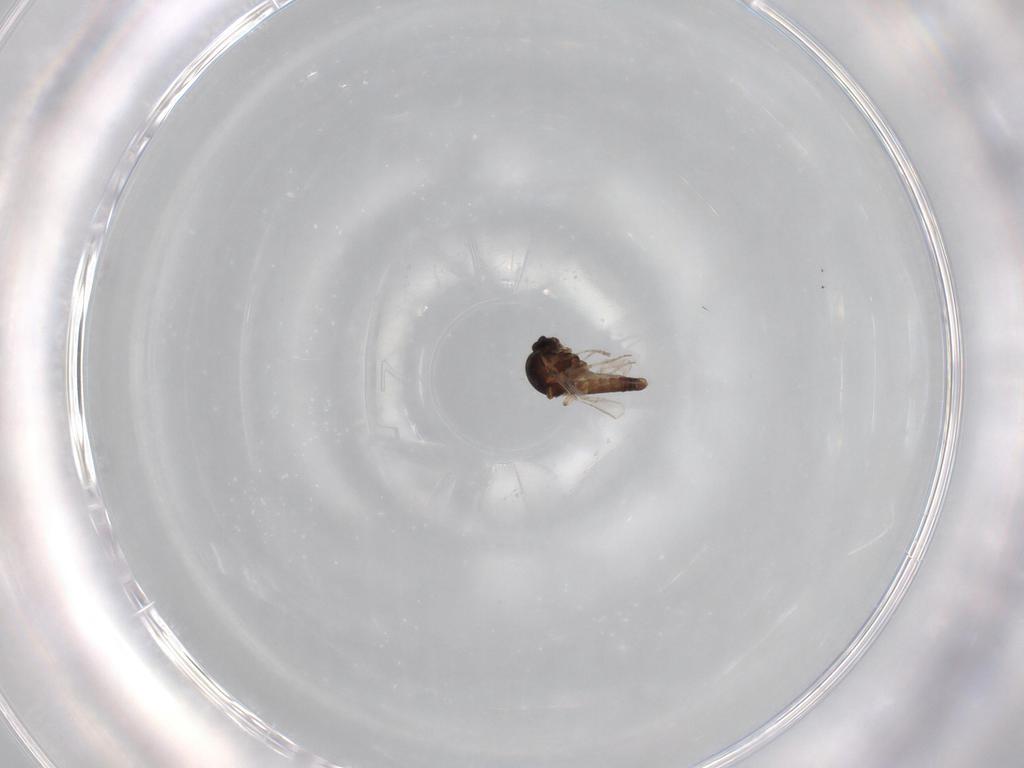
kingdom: Animalia
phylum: Arthropoda
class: Insecta
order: Diptera
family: Ceratopogonidae
